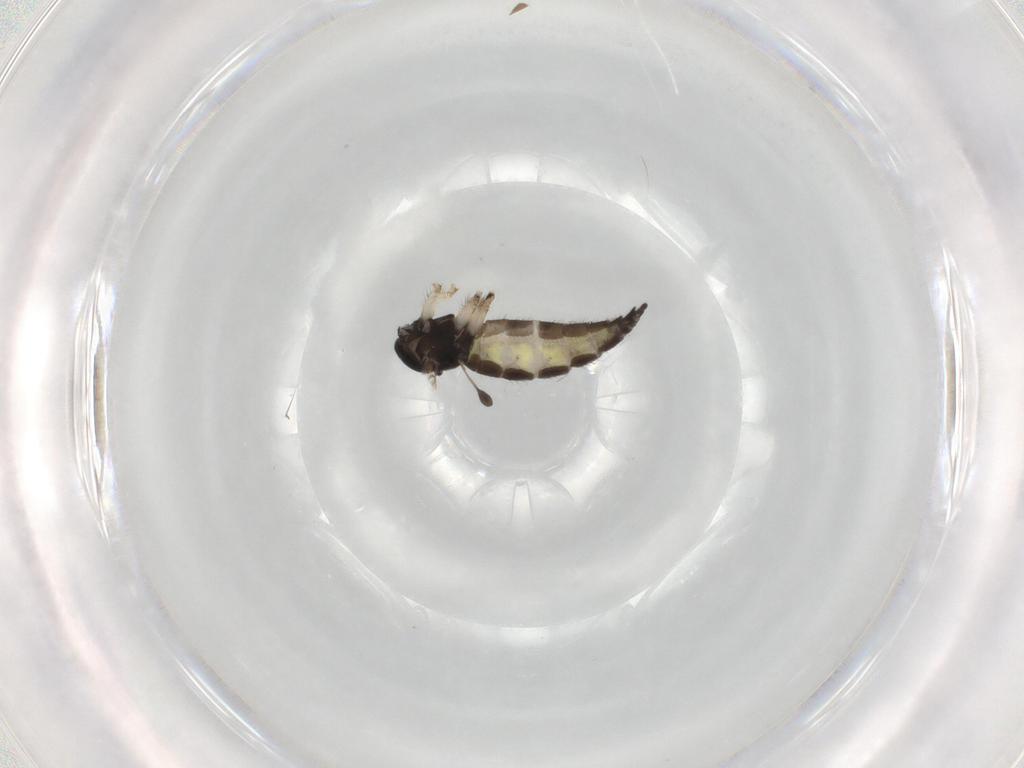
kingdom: Animalia
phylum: Arthropoda
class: Insecta
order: Diptera
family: Sciaridae
